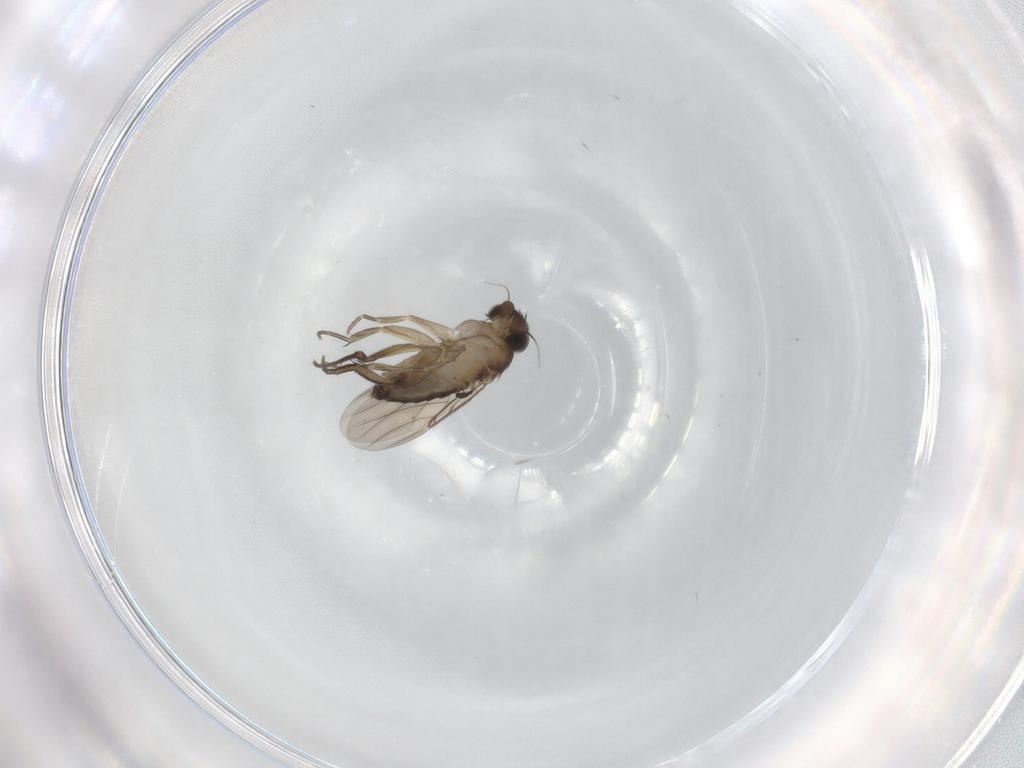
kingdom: Animalia
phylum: Arthropoda
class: Insecta
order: Diptera
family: Phoridae
